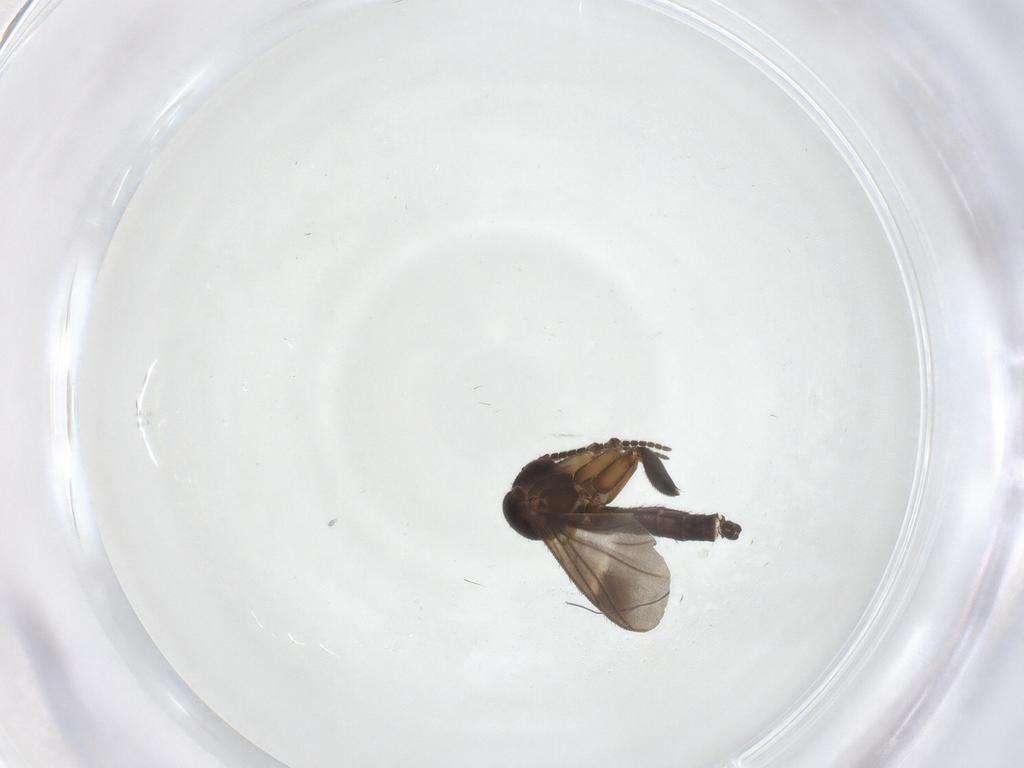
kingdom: Animalia
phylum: Arthropoda
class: Insecta
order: Diptera
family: Mycetophilidae
